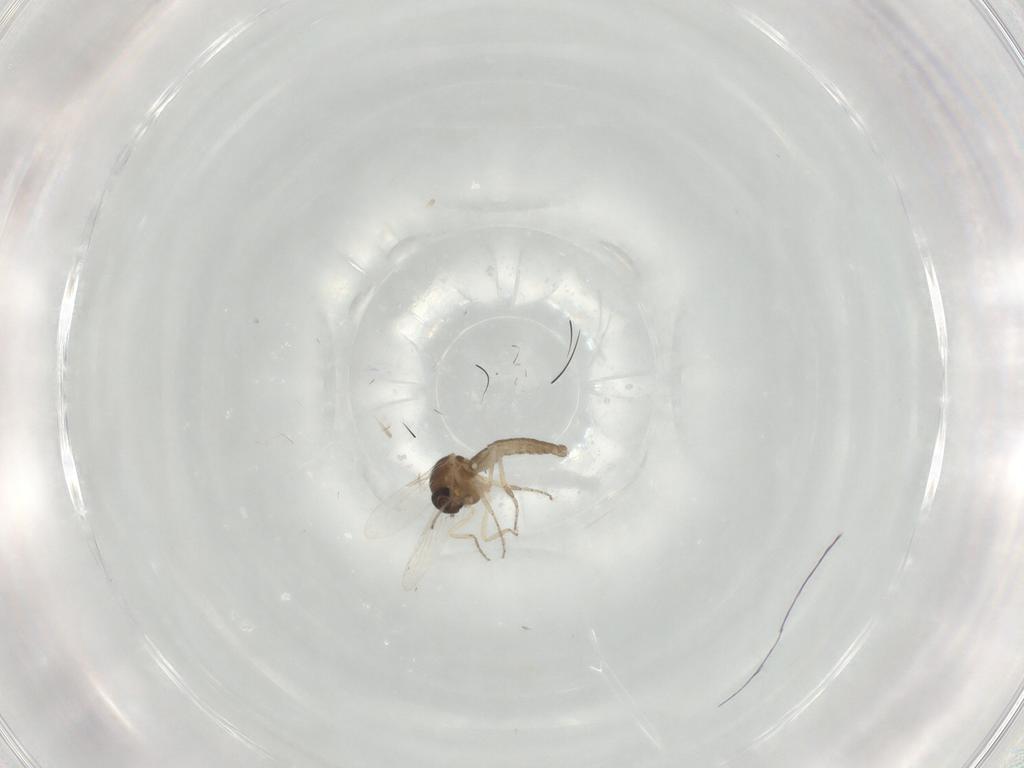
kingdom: Animalia
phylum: Arthropoda
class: Insecta
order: Diptera
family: Ceratopogonidae
